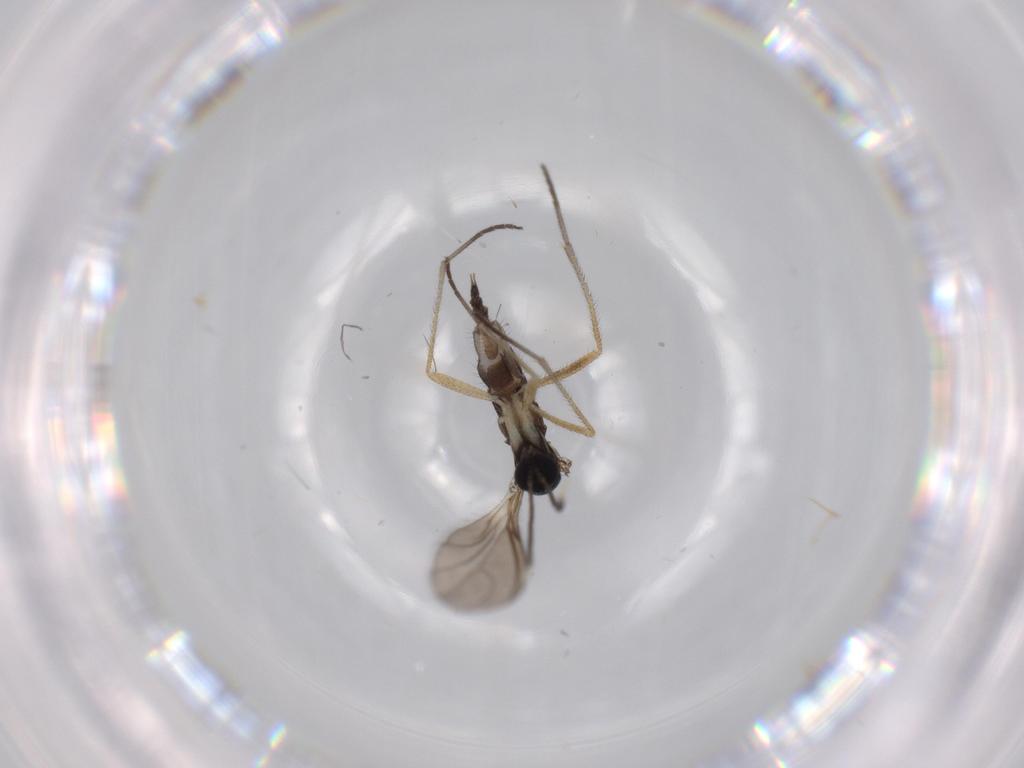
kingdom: Animalia
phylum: Arthropoda
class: Insecta
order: Diptera
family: Sciaridae
